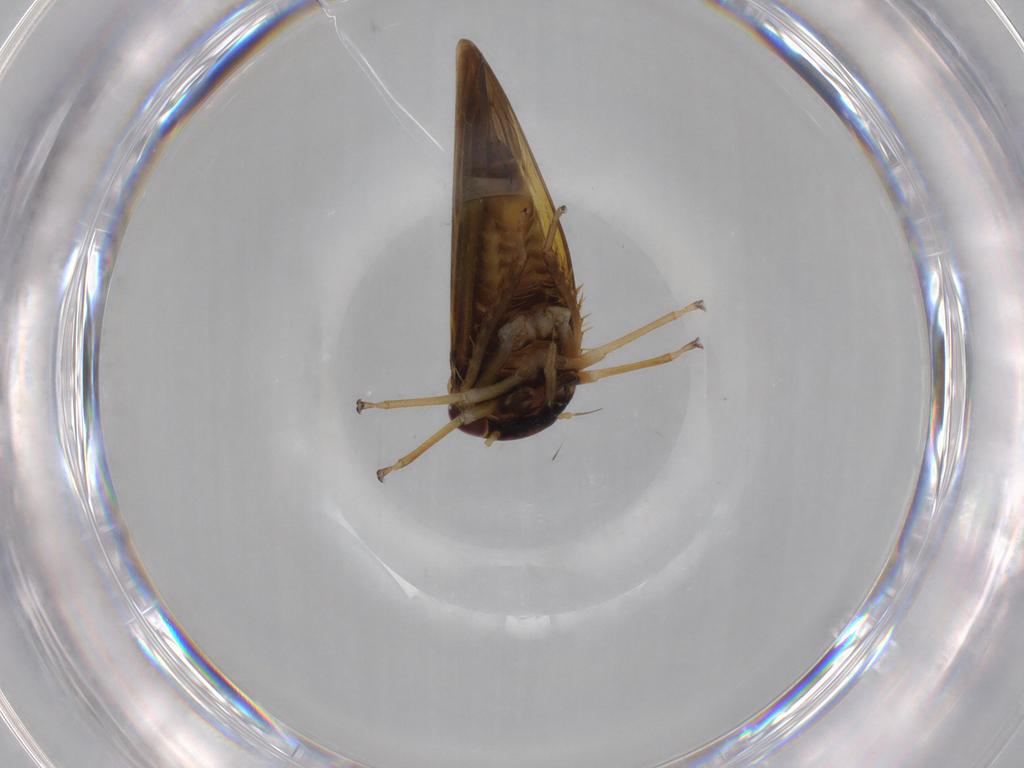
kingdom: Animalia
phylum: Arthropoda
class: Insecta
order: Hemiptera
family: Cicadellidae
